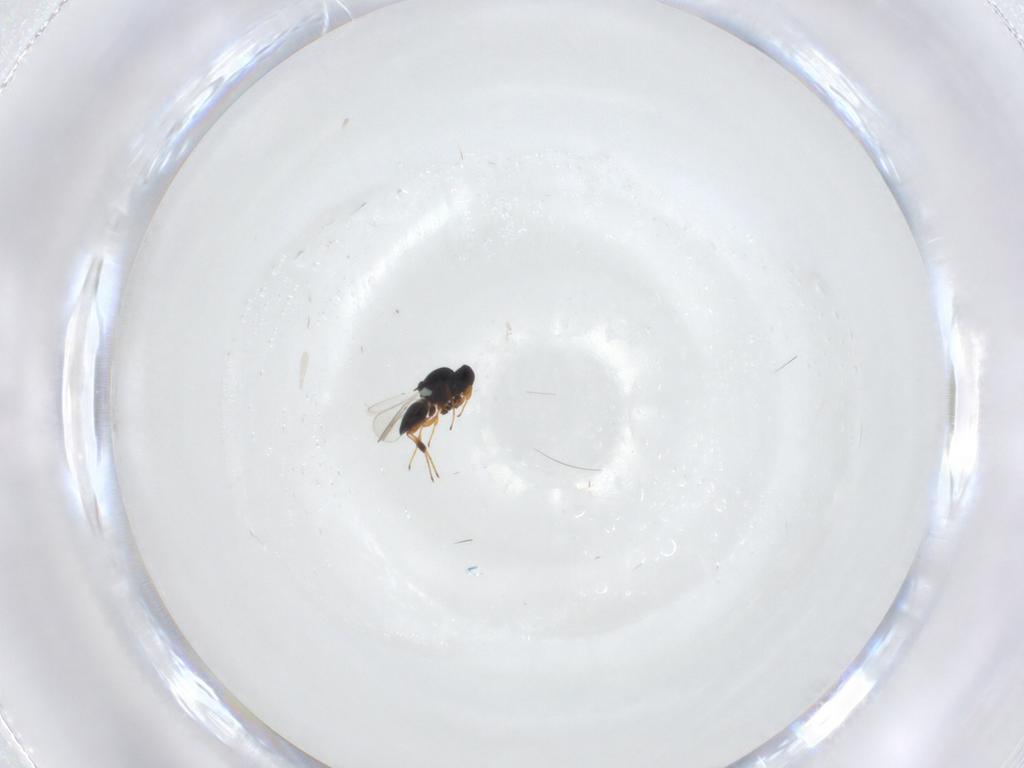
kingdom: Animalia
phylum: Arthropoda
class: Insecta
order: Hymenoptera
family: Platygastridae
